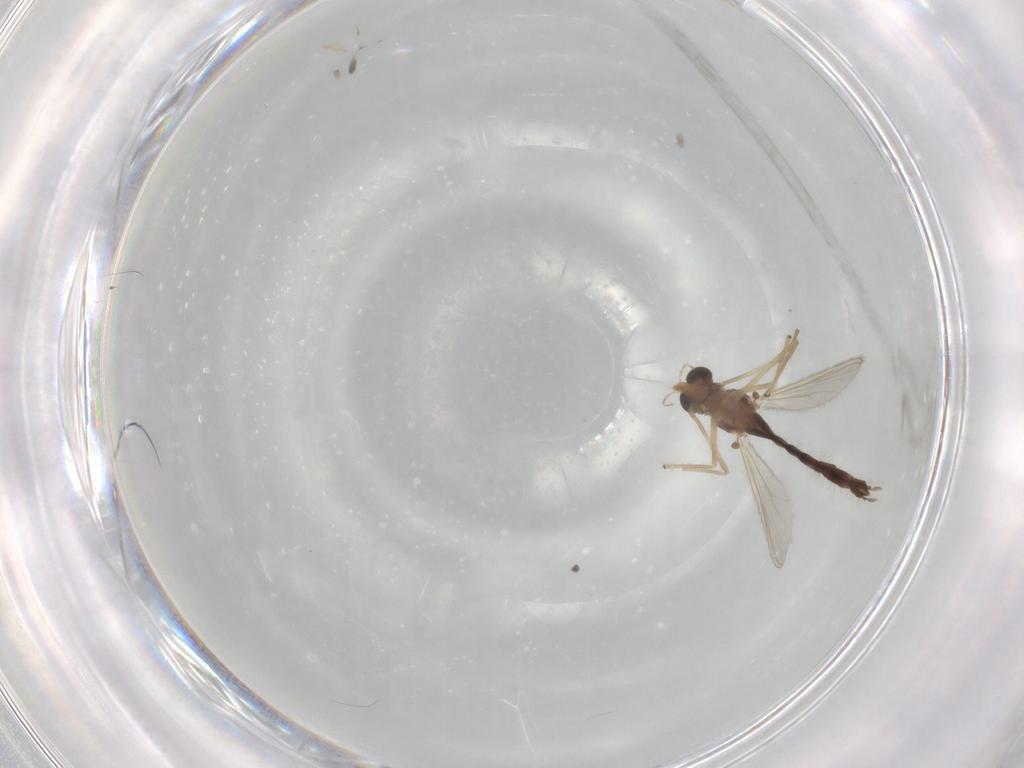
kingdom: Animalia
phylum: Arthropoda
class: Insecta
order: Diptera
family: Chironomidae
